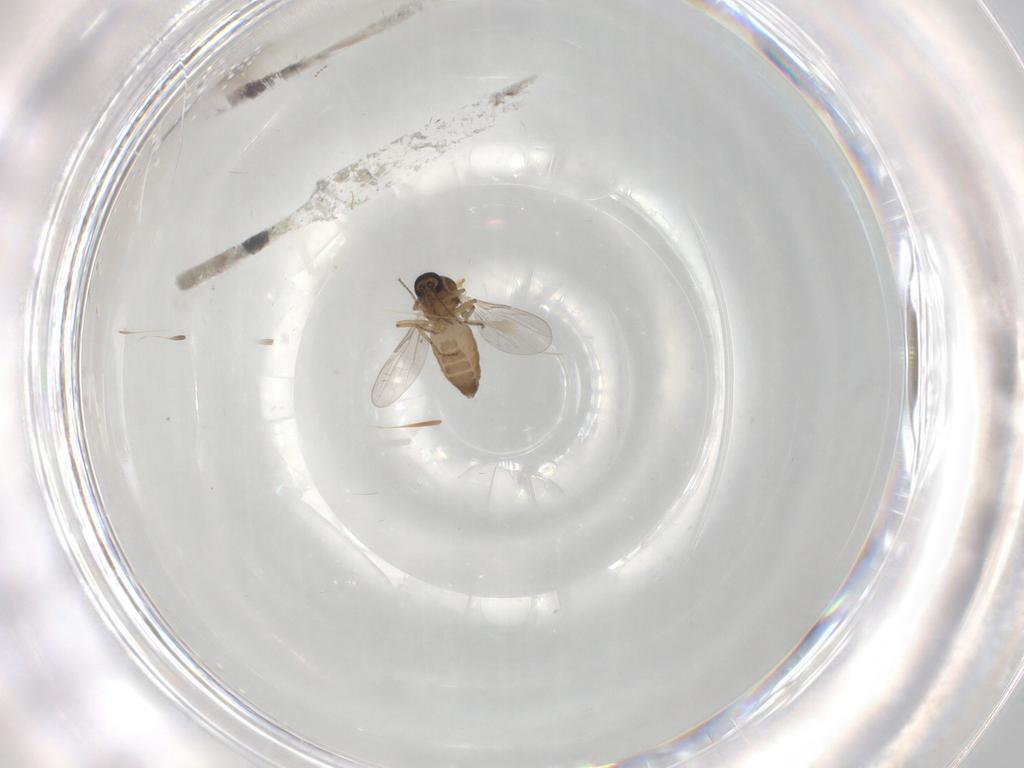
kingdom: Animalia
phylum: Arthropoda
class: Insecta
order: Diptera
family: Ceratopogonidae
